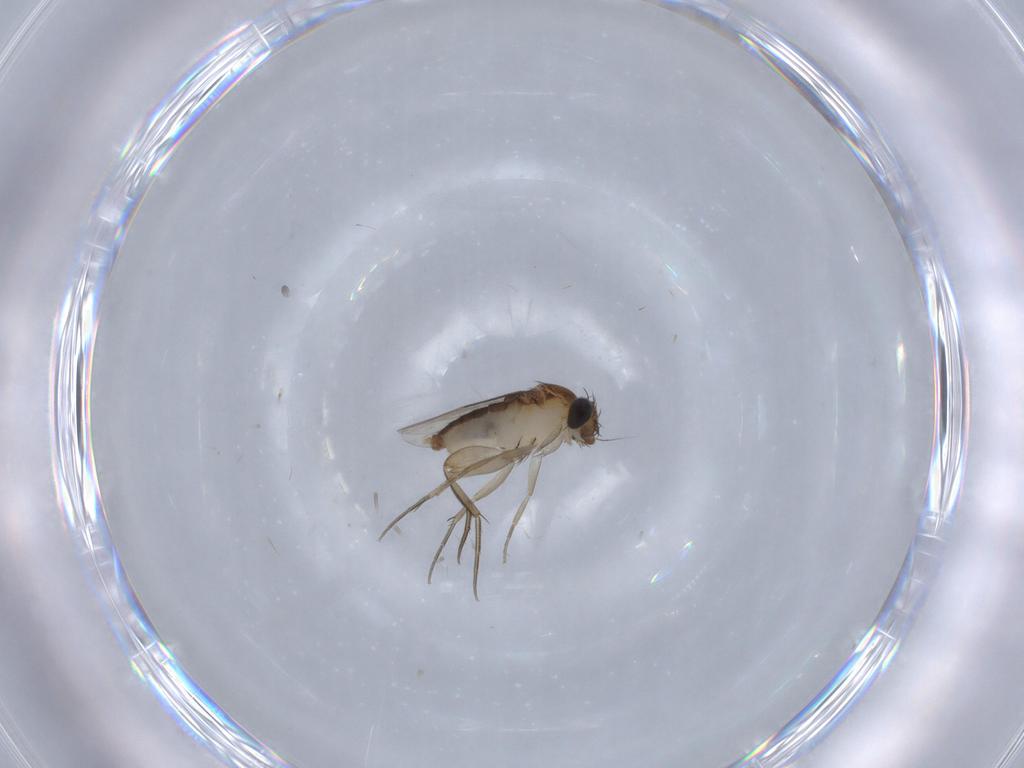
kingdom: Animalia
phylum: Arthropoda
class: Insecta
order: Diptera
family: Phoridae
